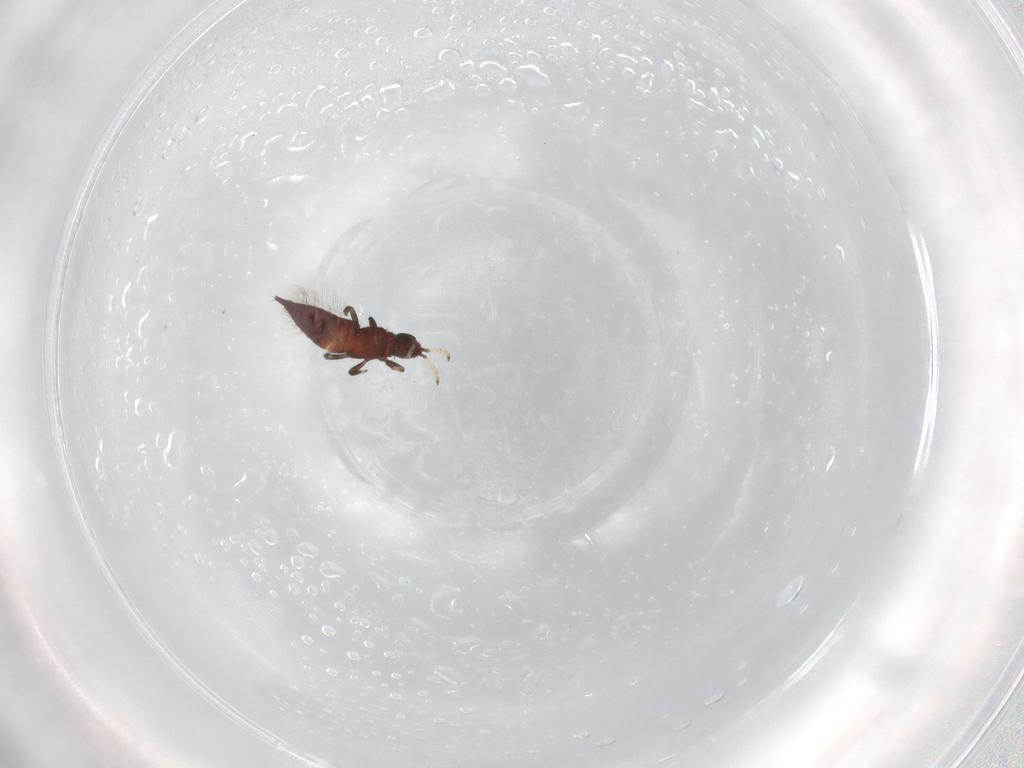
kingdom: Animalia
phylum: Arthropoda
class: Insecta
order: Thysanoptera
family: Phlaeothripidae
